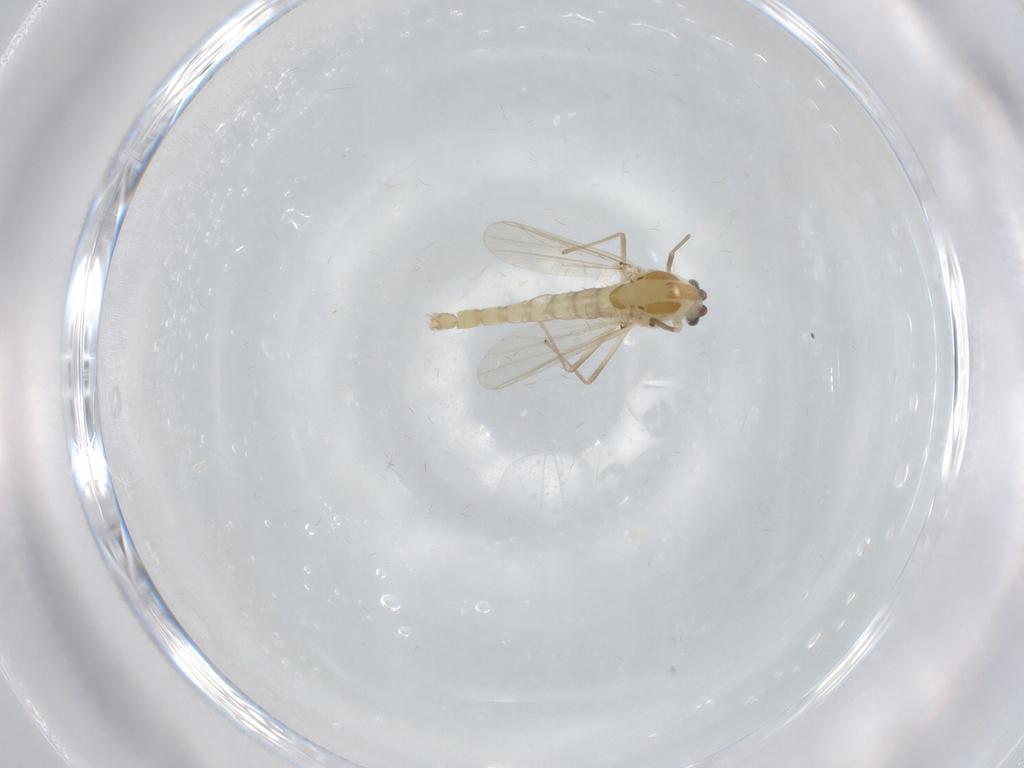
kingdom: Animalia
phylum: Arthropoda
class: Insecta
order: Diptera
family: Chironomidae
